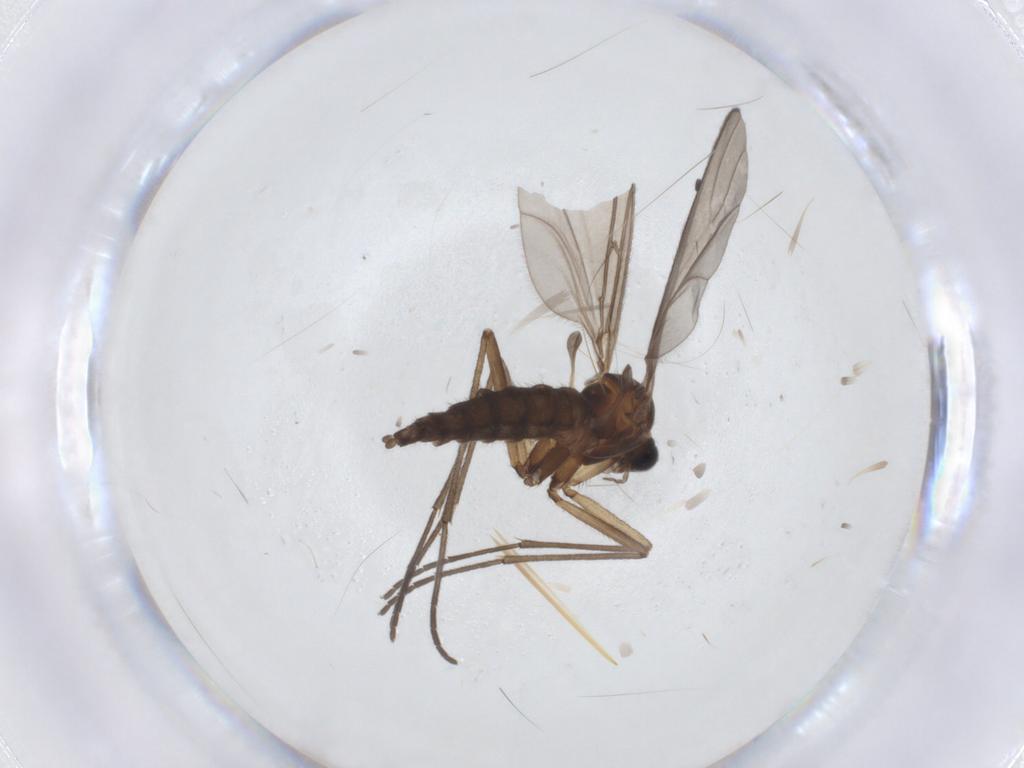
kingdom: Animalia
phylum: Arthropoda
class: Insecta
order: Diptera
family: Sciaridae
